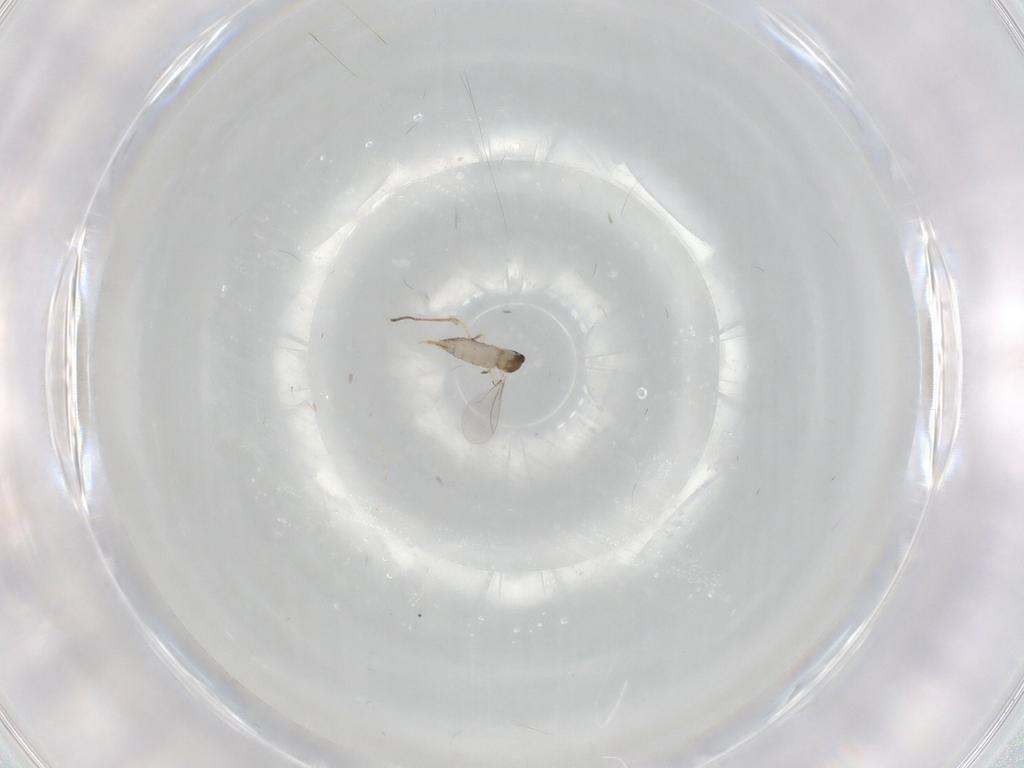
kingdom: Animalia
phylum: Arthropoda
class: Insecta
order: Diptera
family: Cecidomyiidae
